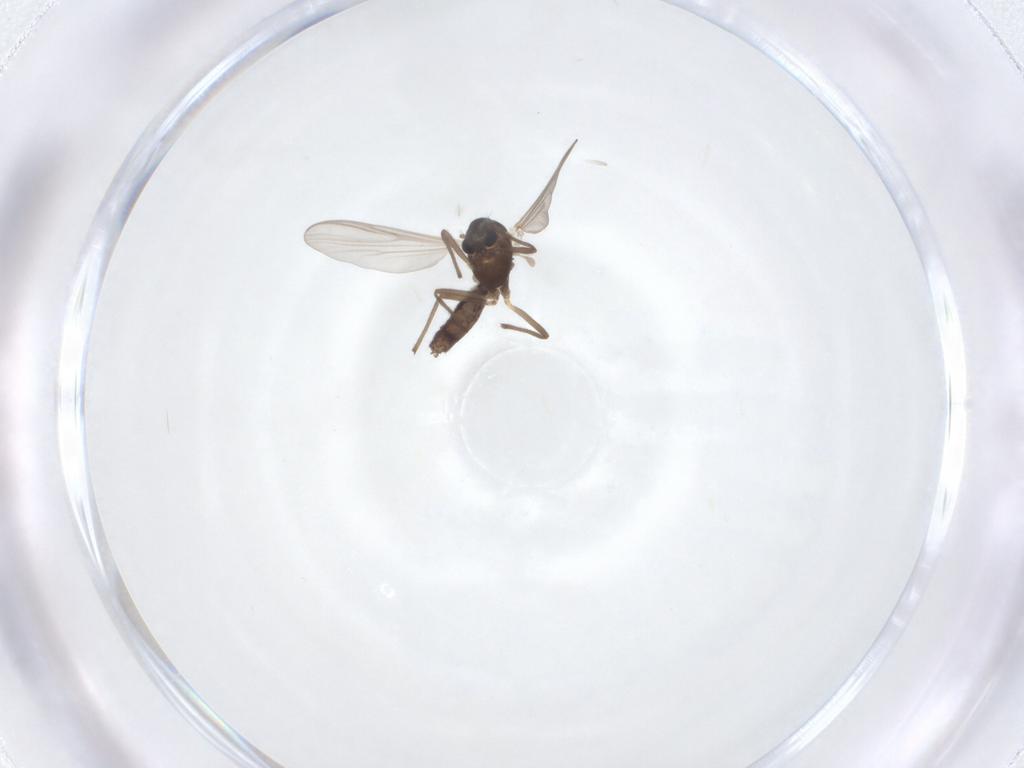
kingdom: Animalia
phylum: Arthropoda
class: Insecta
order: Diptera
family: Chironomidae
